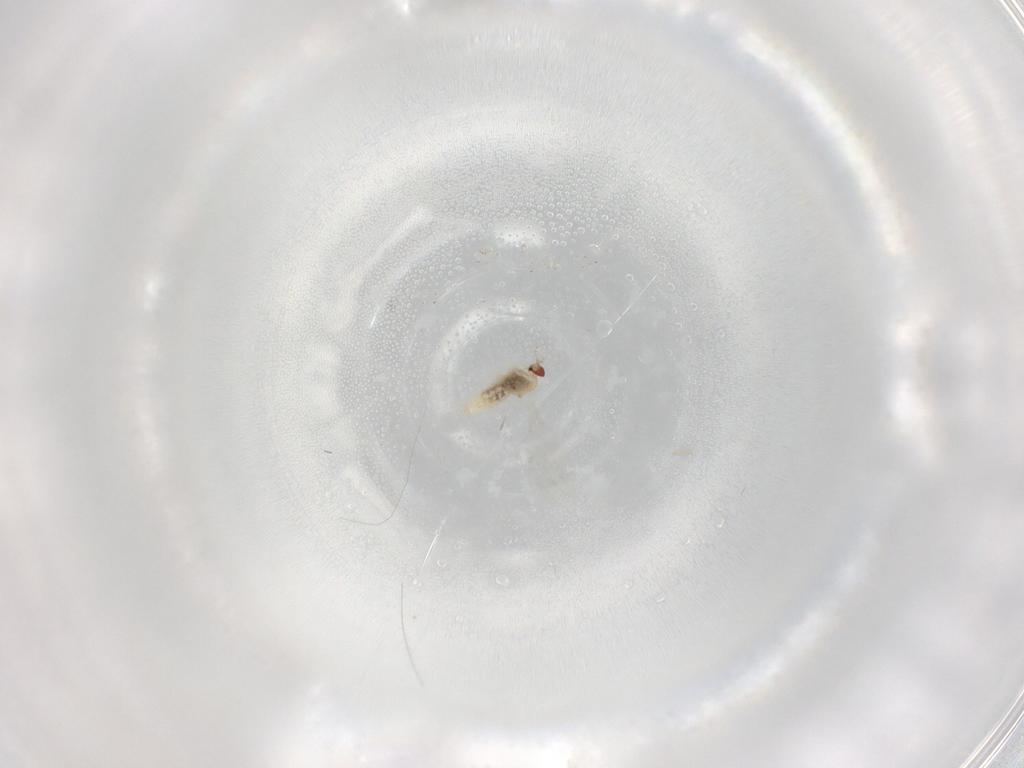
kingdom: Animalia
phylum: Arthropoda
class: Insecta
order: Diptera
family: Cecidomyiidae
